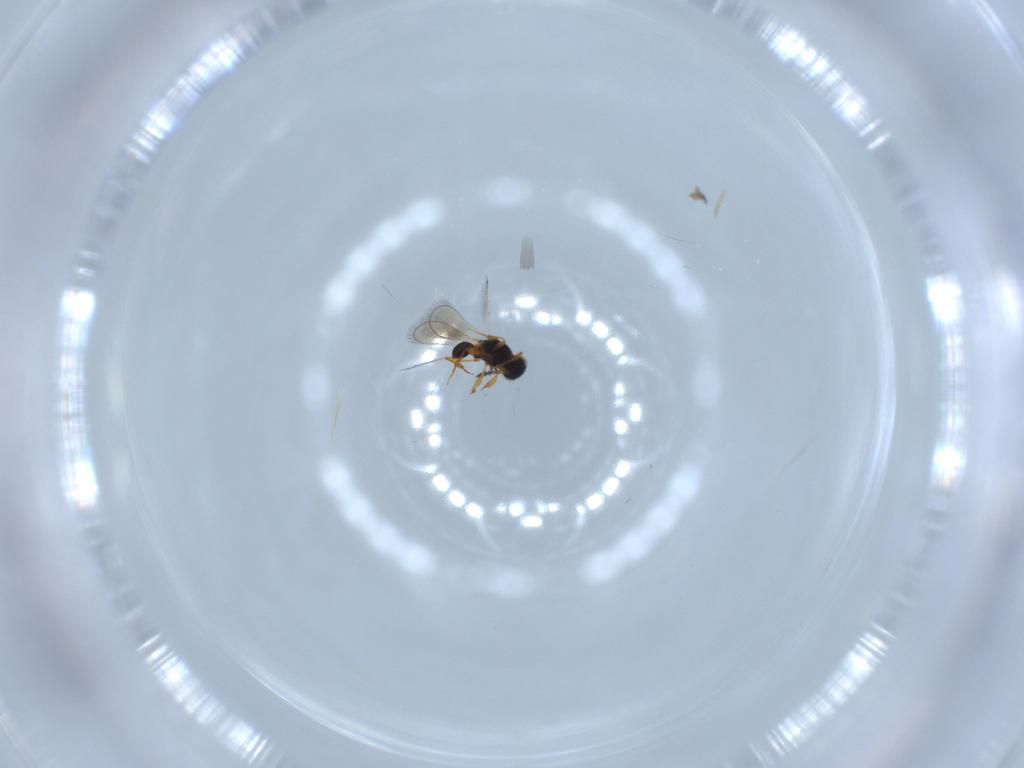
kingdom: Animalia
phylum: Arthropoda
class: Insecta
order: Hymenoptera
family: Platygastridae
